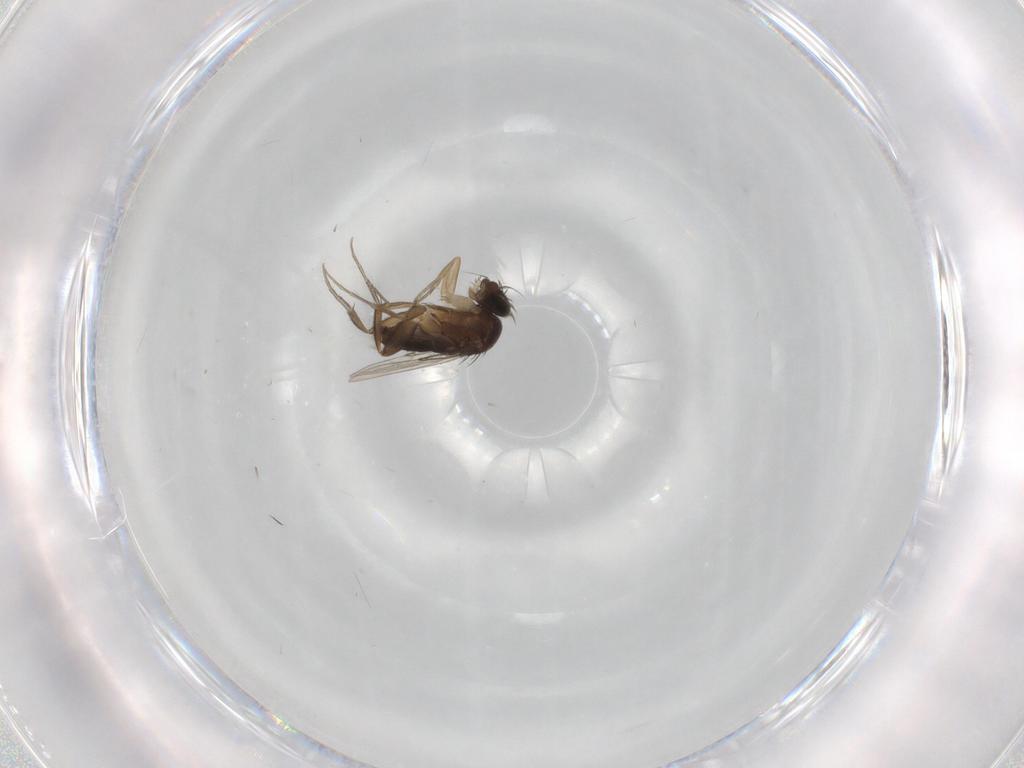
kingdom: Animalia
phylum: Arthropoda
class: Insecta
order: Diptera
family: Phoridae
